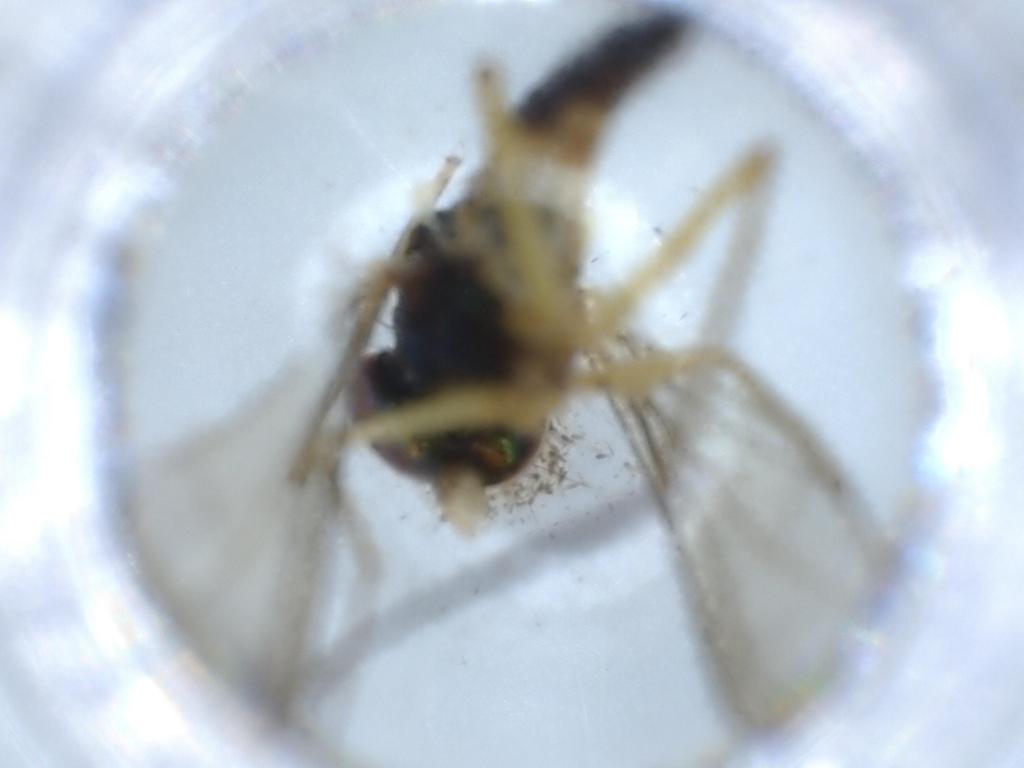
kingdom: Animalia
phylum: Arthropoda
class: Insecta
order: Diptera
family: Dolichopodidae
